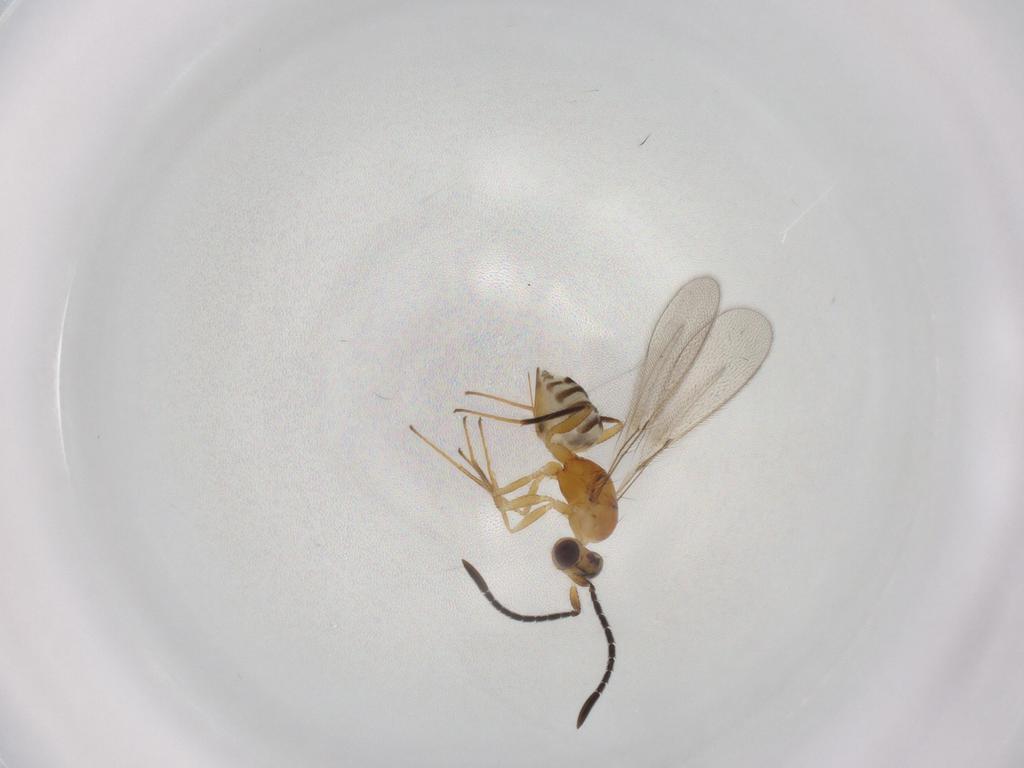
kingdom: Animalia
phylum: Arthropoda
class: Insecta
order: Hymenoptera
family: Mymaridae
